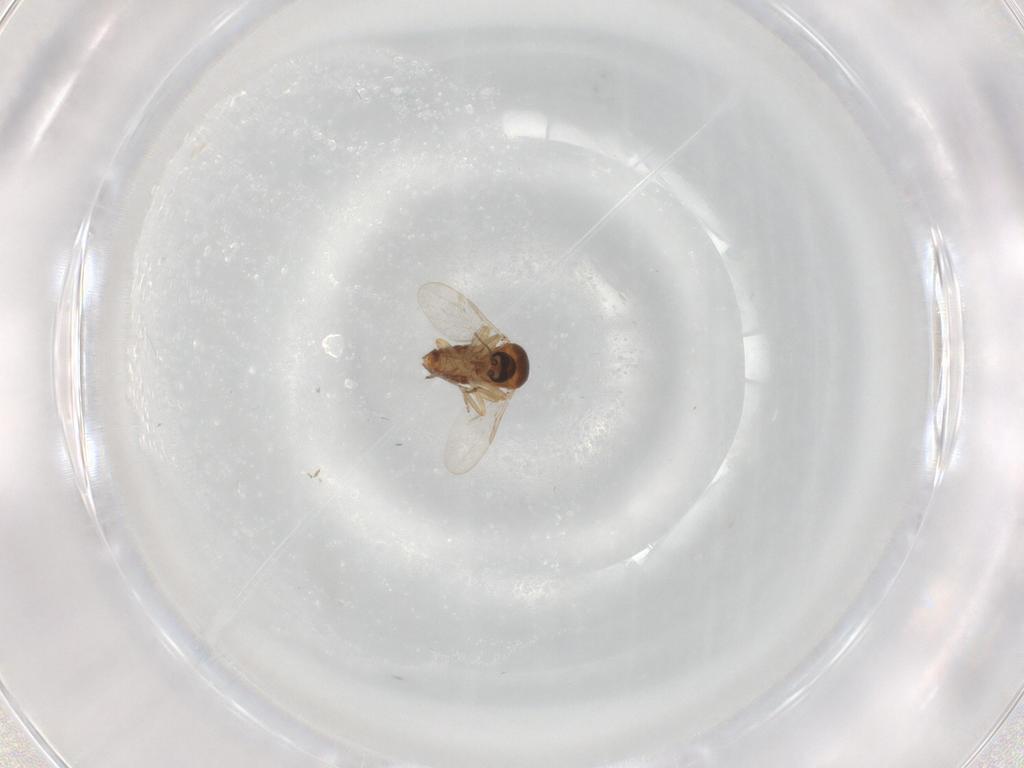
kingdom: Animalia
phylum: Arthropoda
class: Insecta
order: Diptera
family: Ceratopogonidae
